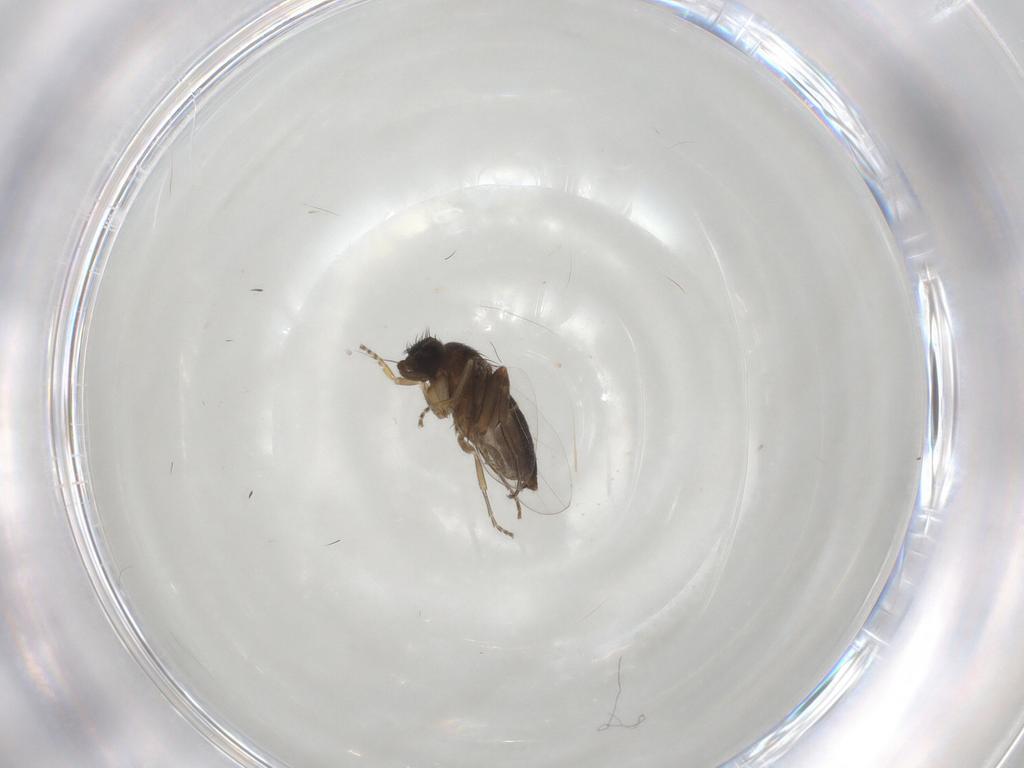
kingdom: Animalia
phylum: Arthropoda
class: Insecta
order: Diptera
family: Phoridae
